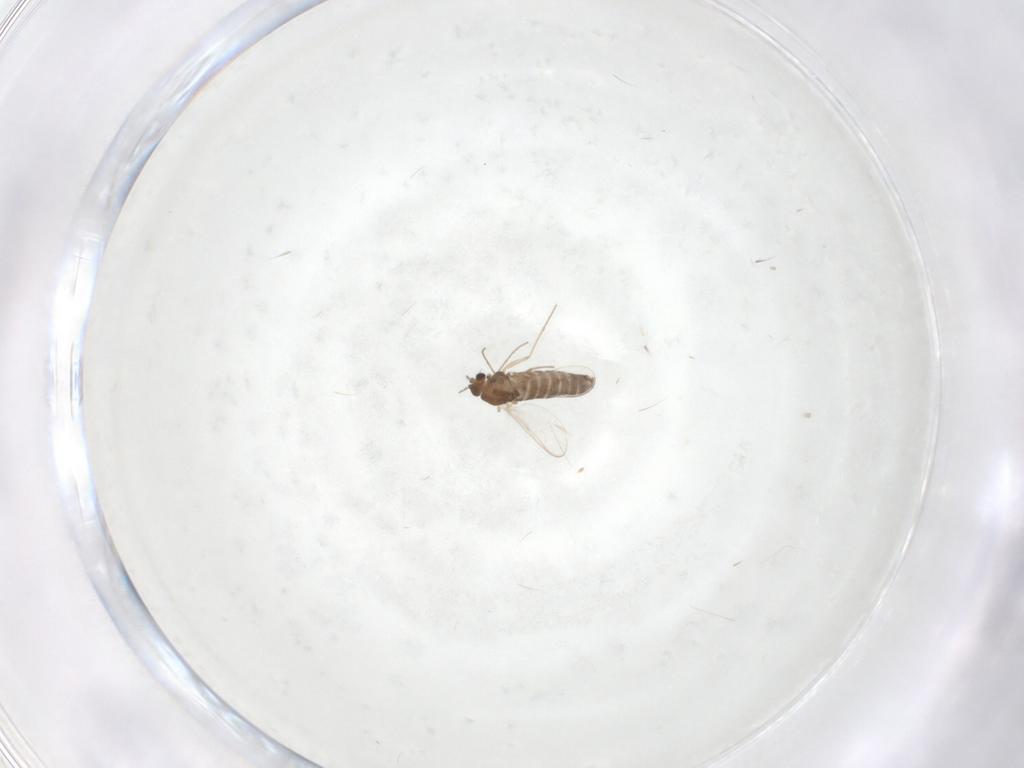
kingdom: Animalia
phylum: Arthropoda
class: Insecta
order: Diptera
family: Chironomidae
